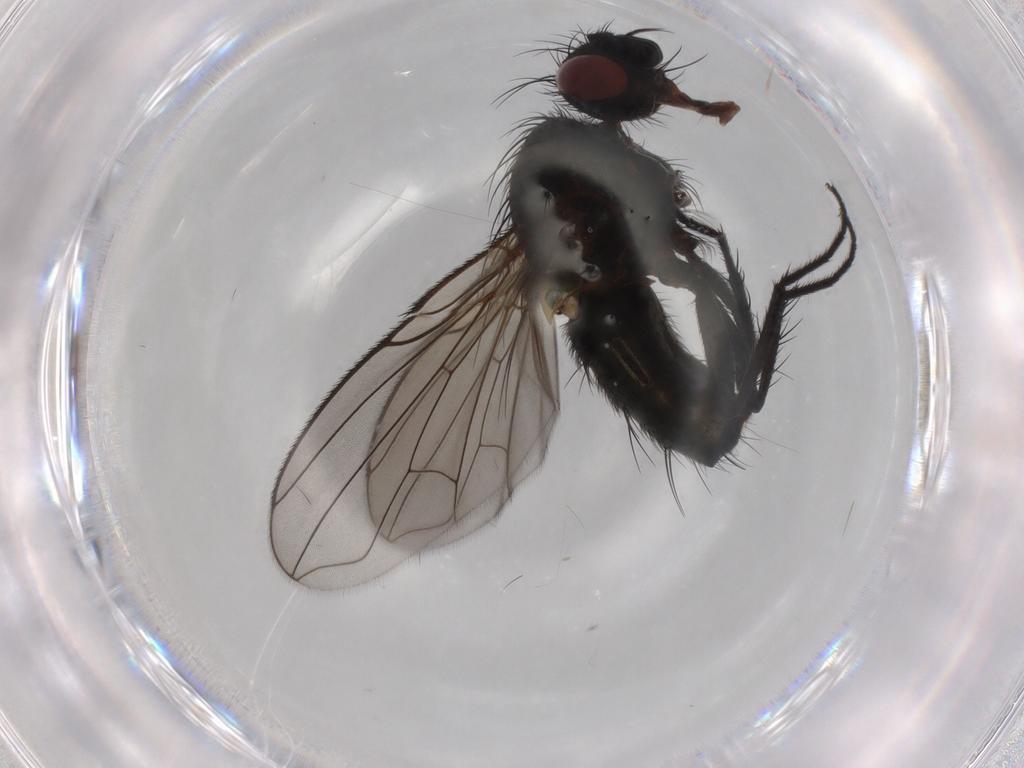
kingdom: Animalia
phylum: Arthropoda
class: Insecta
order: Diptera
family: Tachinidae
